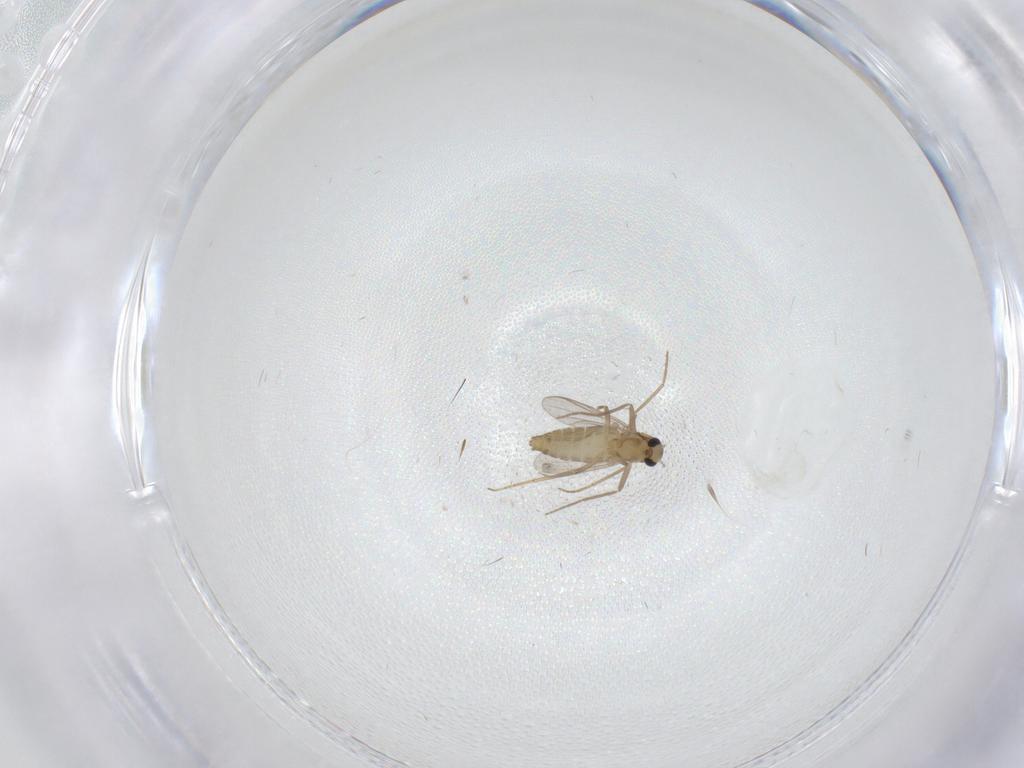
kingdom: Animalia
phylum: Arthropoda
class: Insecta
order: Diptera
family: Chironomidae
